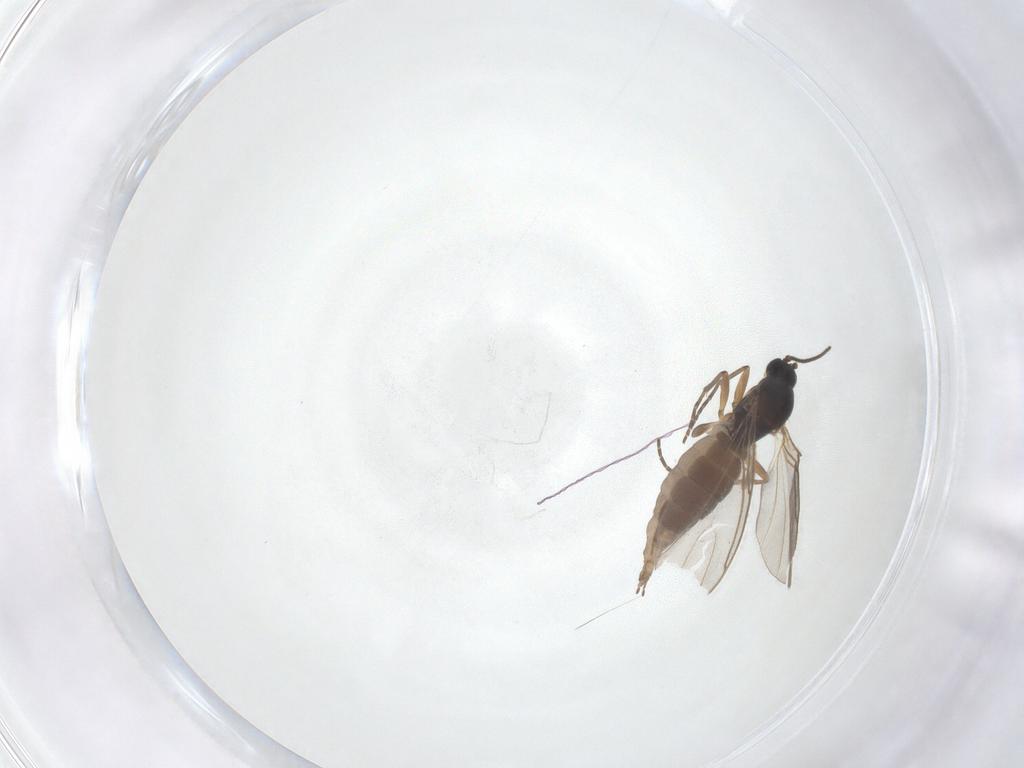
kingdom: Animalia
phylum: Arthropoda
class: Insecta
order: Diptera
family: Sciaridae
